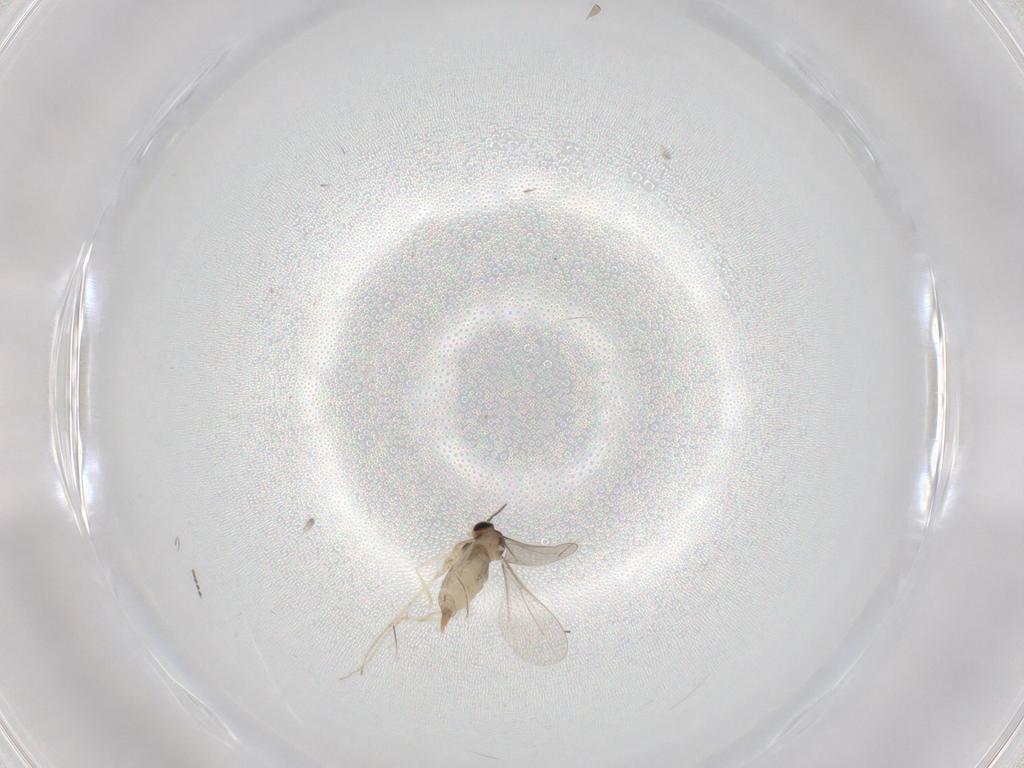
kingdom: Animalia
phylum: Arthropoda
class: Insecta
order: Diptera
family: Cecidomyiidae
